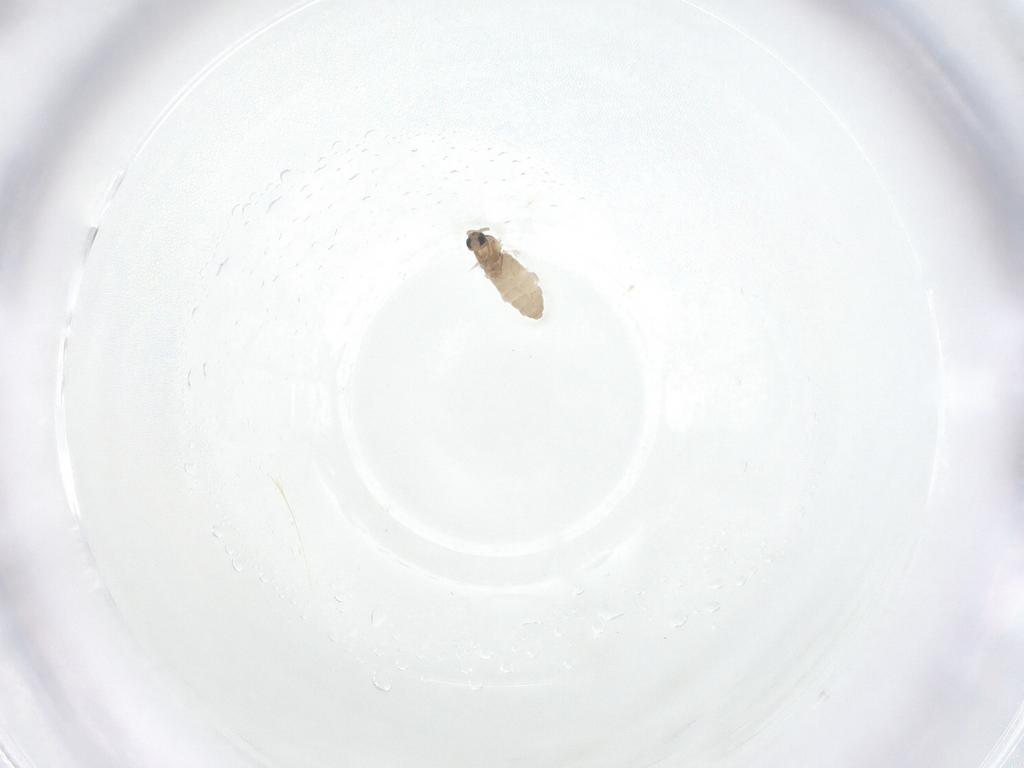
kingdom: Animalia
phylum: Arthropoda
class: Insecta
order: Diptera
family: Cecidomyiidae
